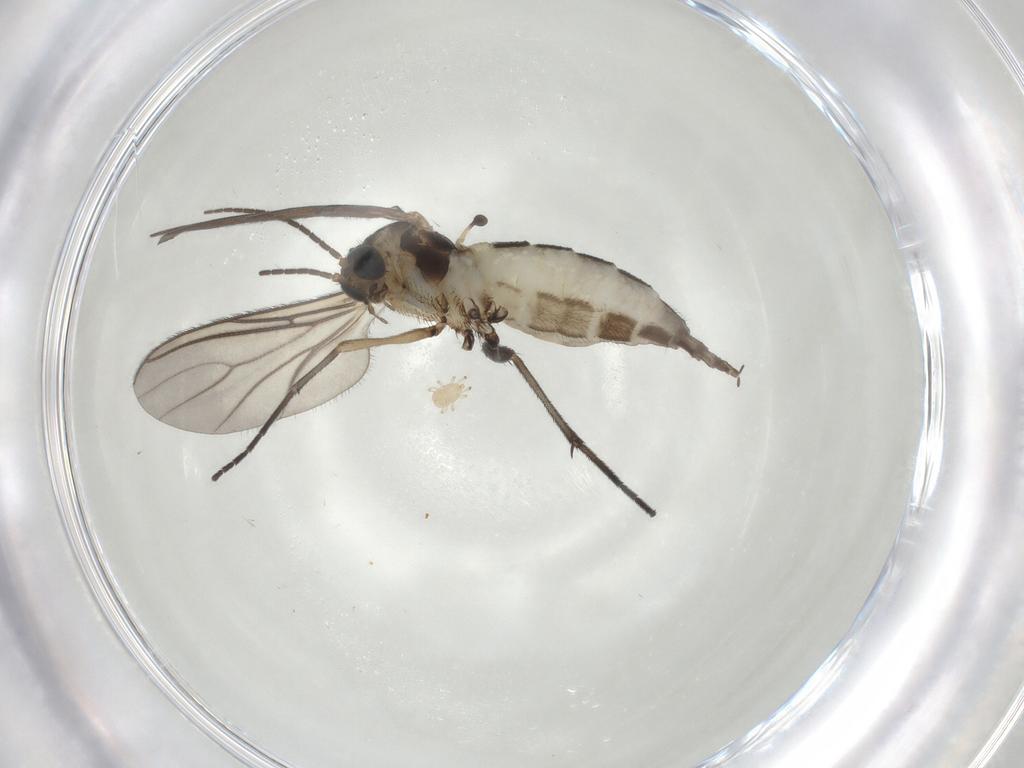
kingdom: Animalia
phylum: Arthropoda
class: Insecta
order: Diptera
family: Sciaridae
